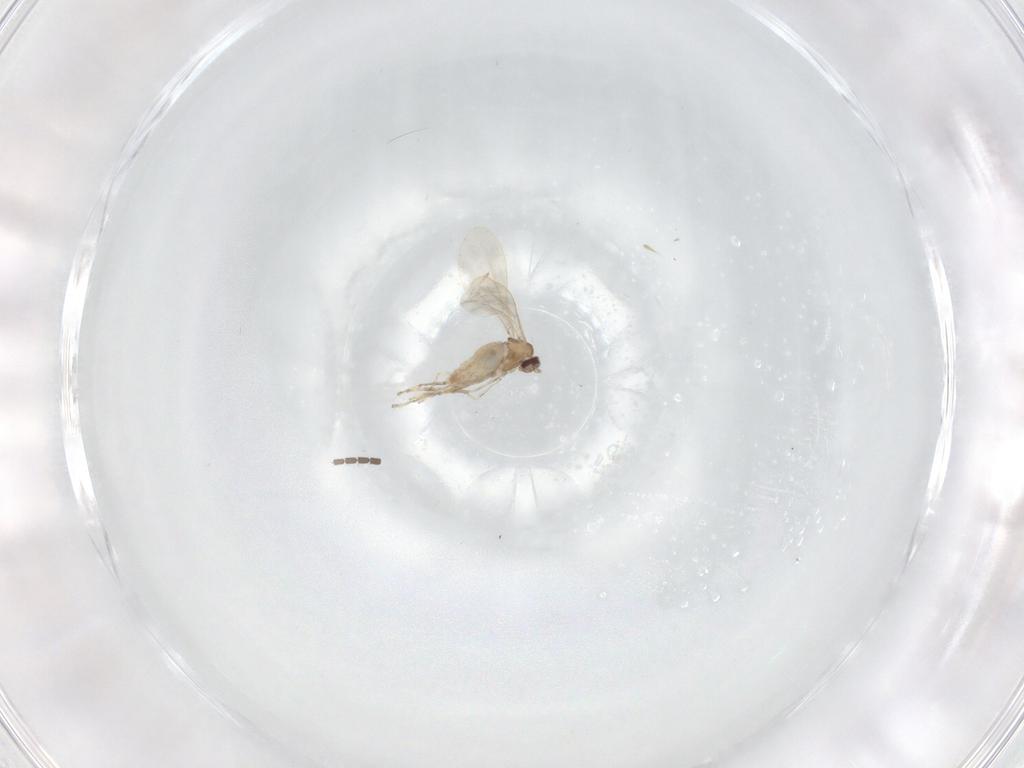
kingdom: Animalia
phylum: Arthropoda
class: Insecta
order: Diptera
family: Cecidomyiidae
